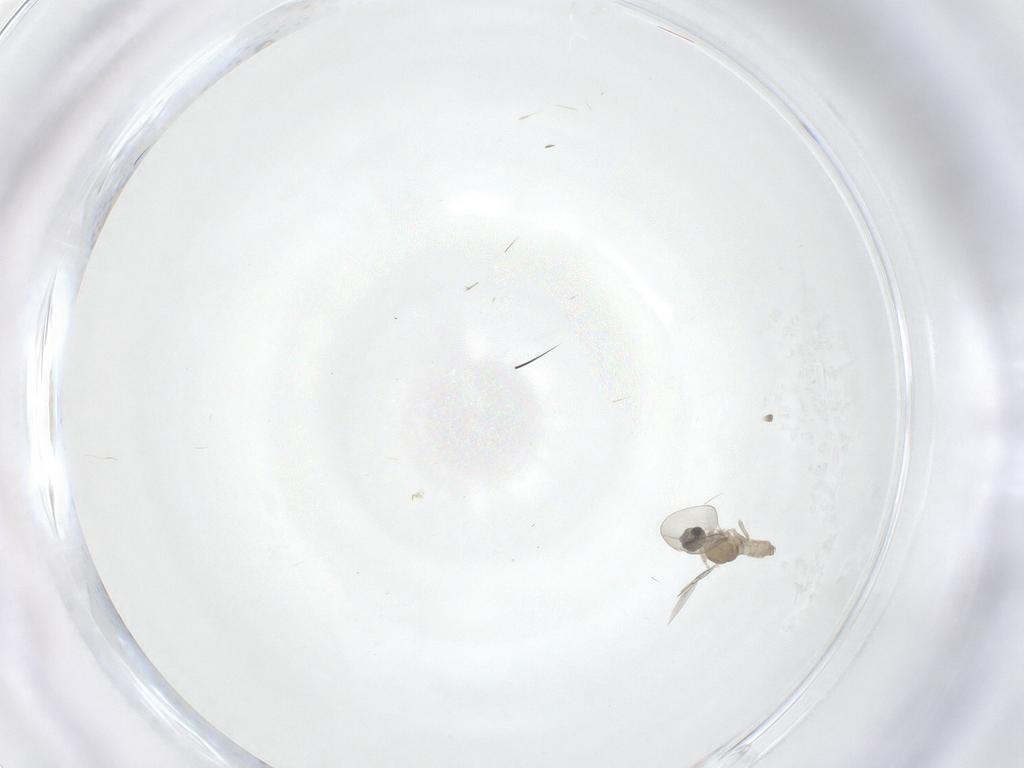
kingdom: Animalia
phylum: Arthropoda
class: Insecta
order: Diptera
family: Cecidomyiidae
